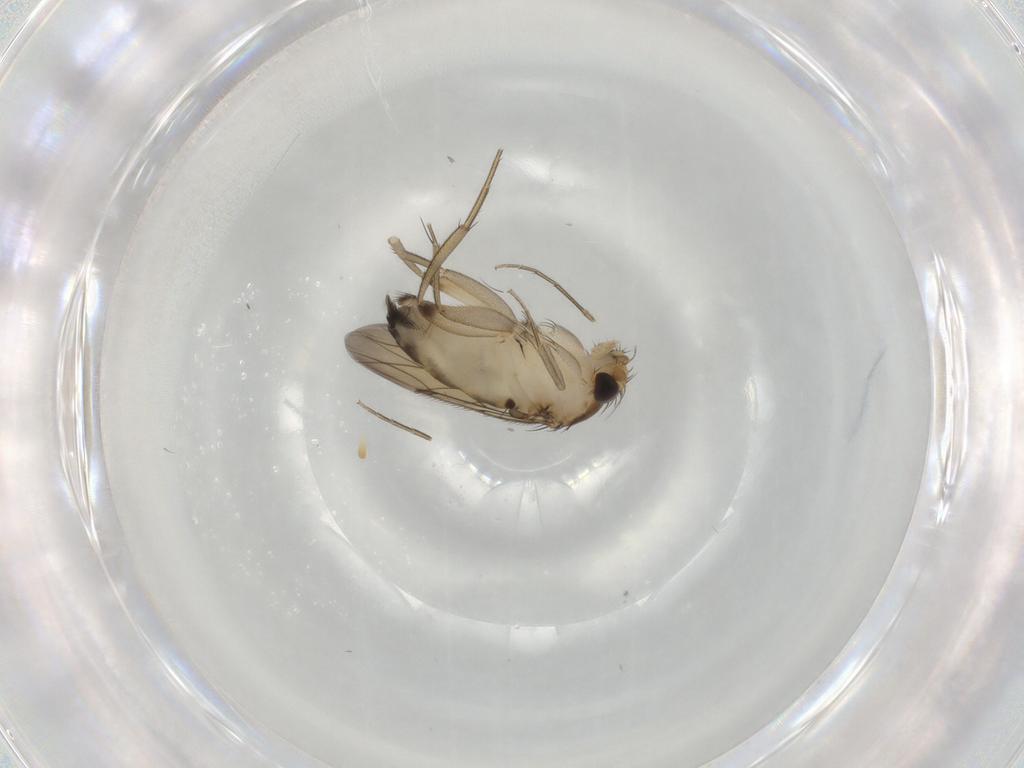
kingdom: Animalia
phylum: Arthropoda
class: Insecta
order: Diptera
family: Phoridae
